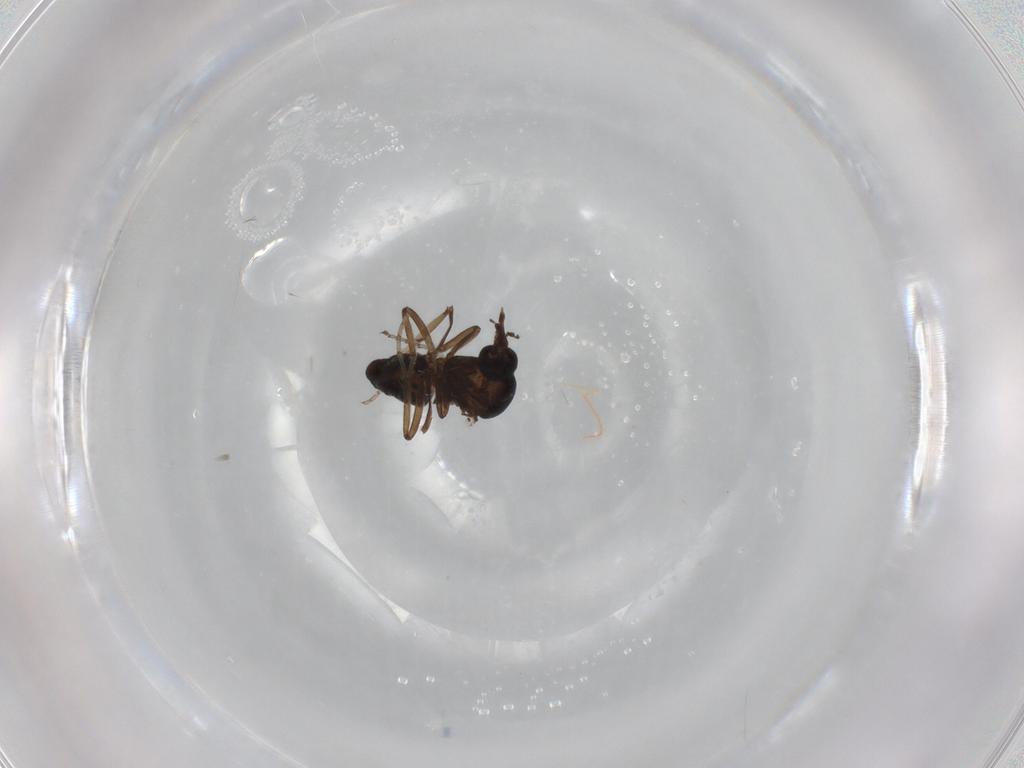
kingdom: Animalia
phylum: Arthropoda
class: Insecta
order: Diptera
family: Ceratopogonidae
